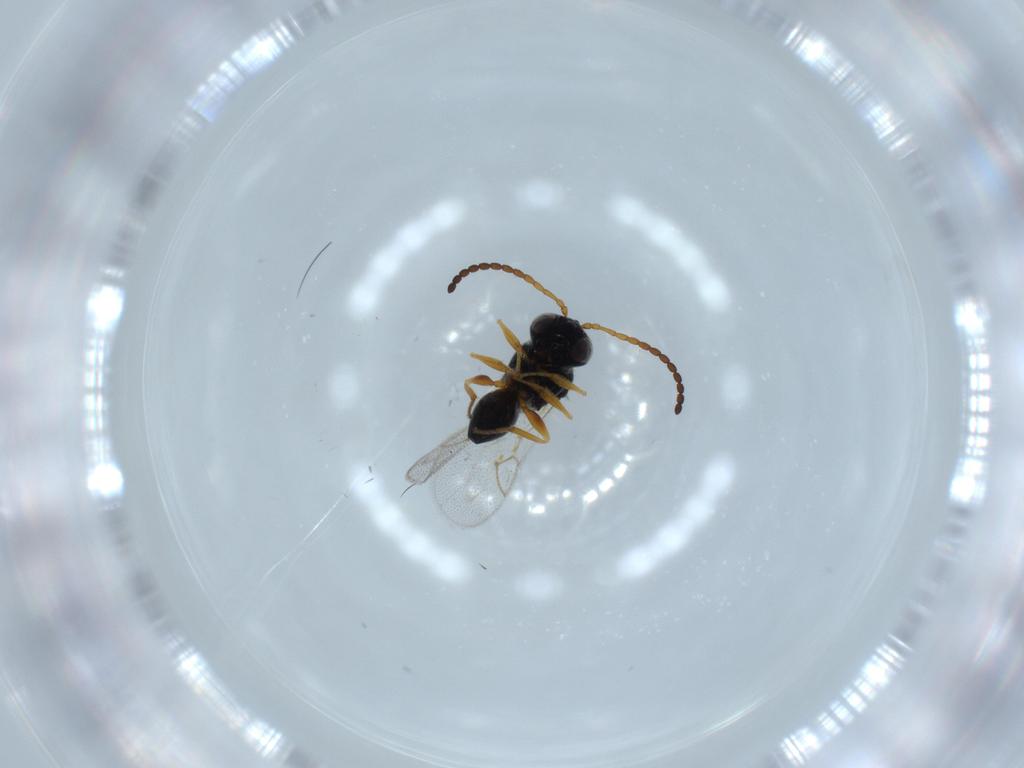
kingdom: Animalia
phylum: Arthropoda
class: Insecta
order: Hymenoptera
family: Figitidae
